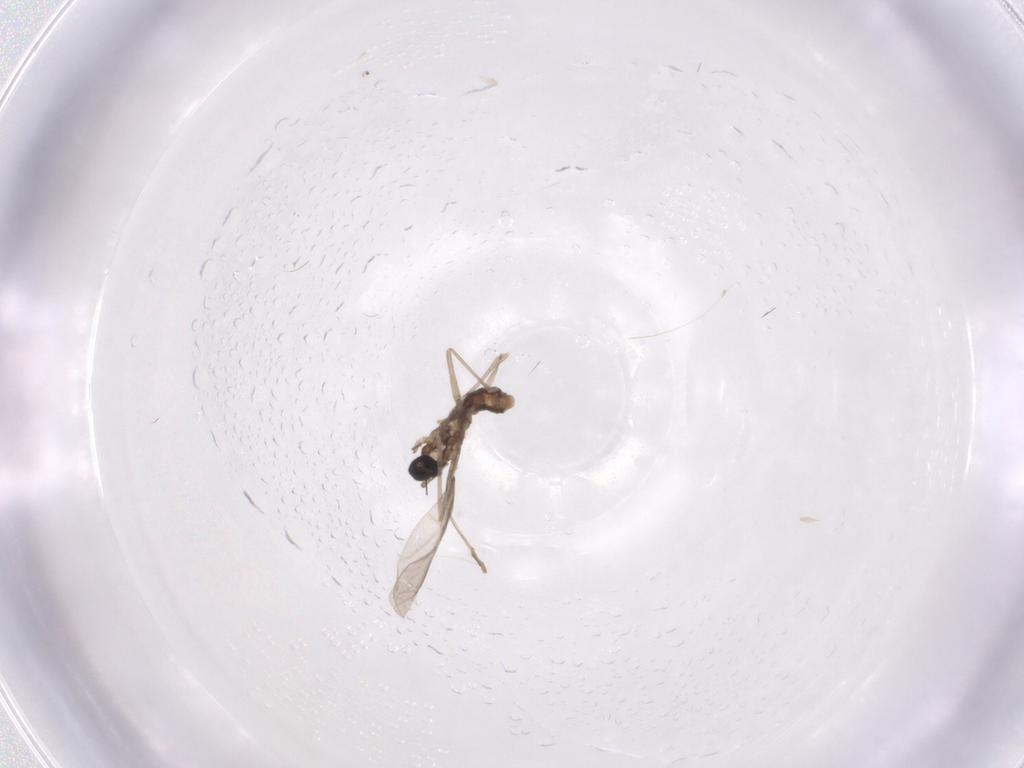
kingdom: Animalia
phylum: Arthropoda
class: Insecta
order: Diptera
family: Cecidomyiidae
